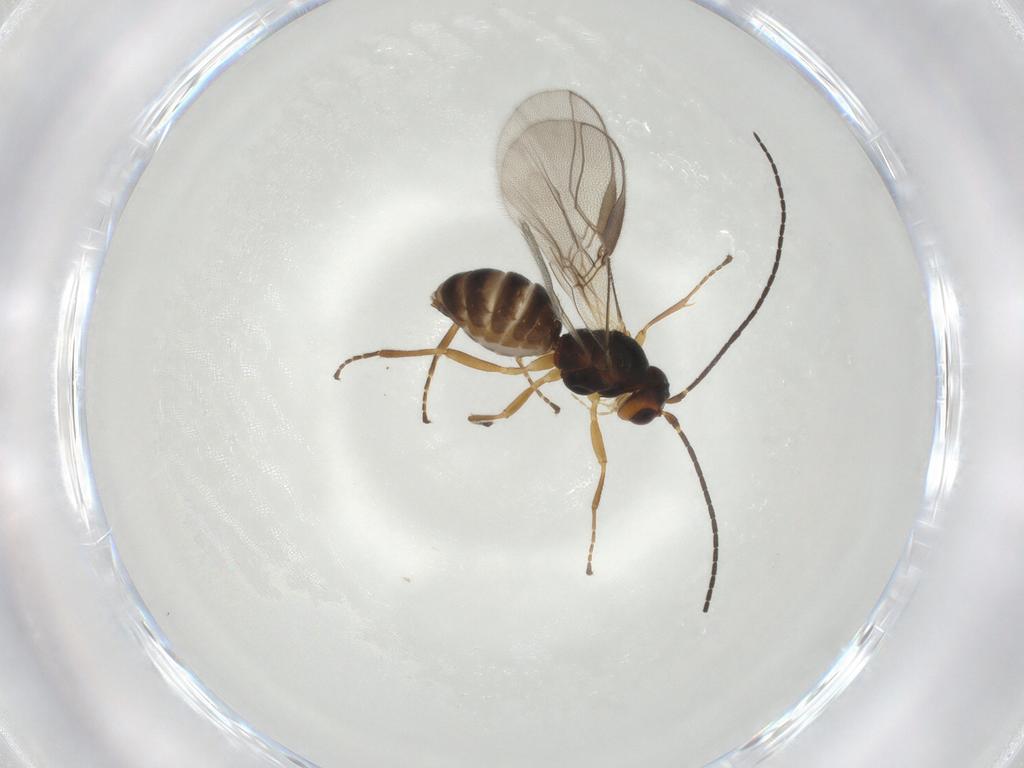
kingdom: Animalia
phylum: Arthropoda
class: Insecta
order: Hymenoptera
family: Braconidae
